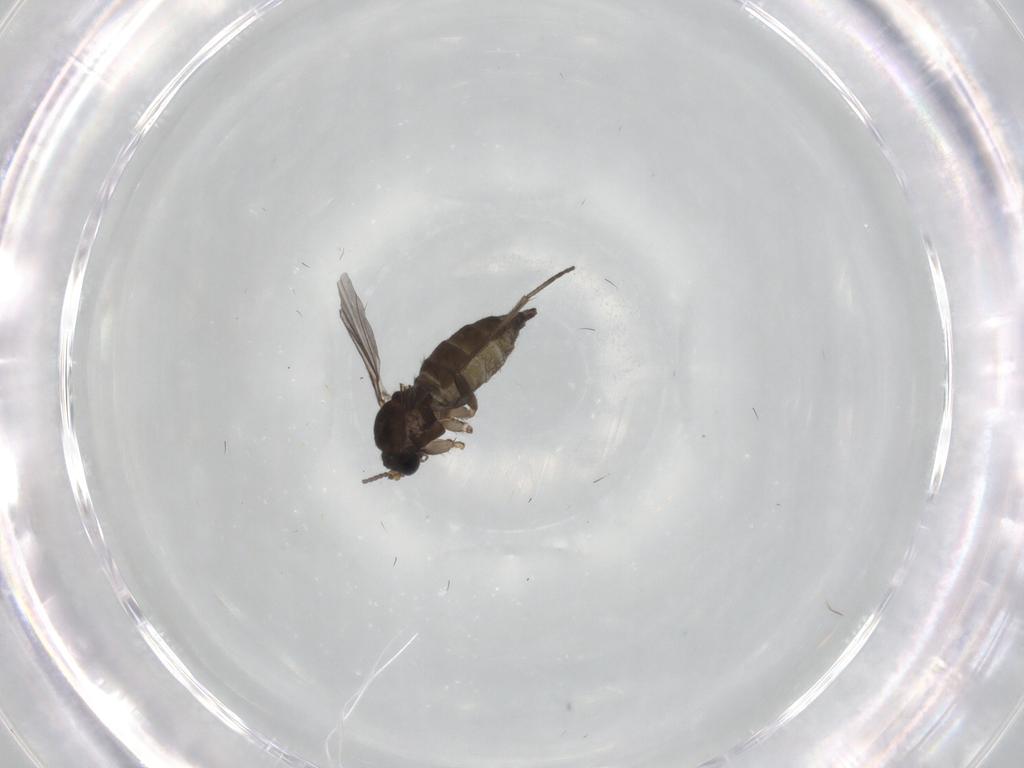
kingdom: Animalia
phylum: Arthropoda
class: Insecta
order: Diptera
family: Sciaridae
